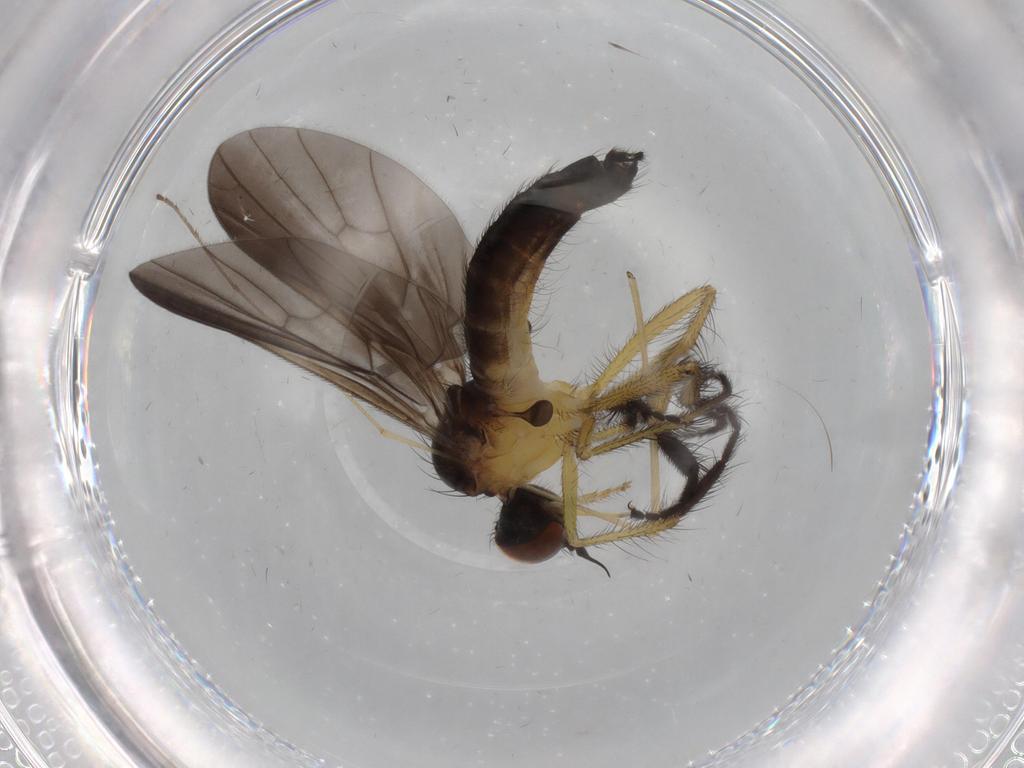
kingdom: Animalia
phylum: Arthropoda
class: Insecta
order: Diptera
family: Empididae
